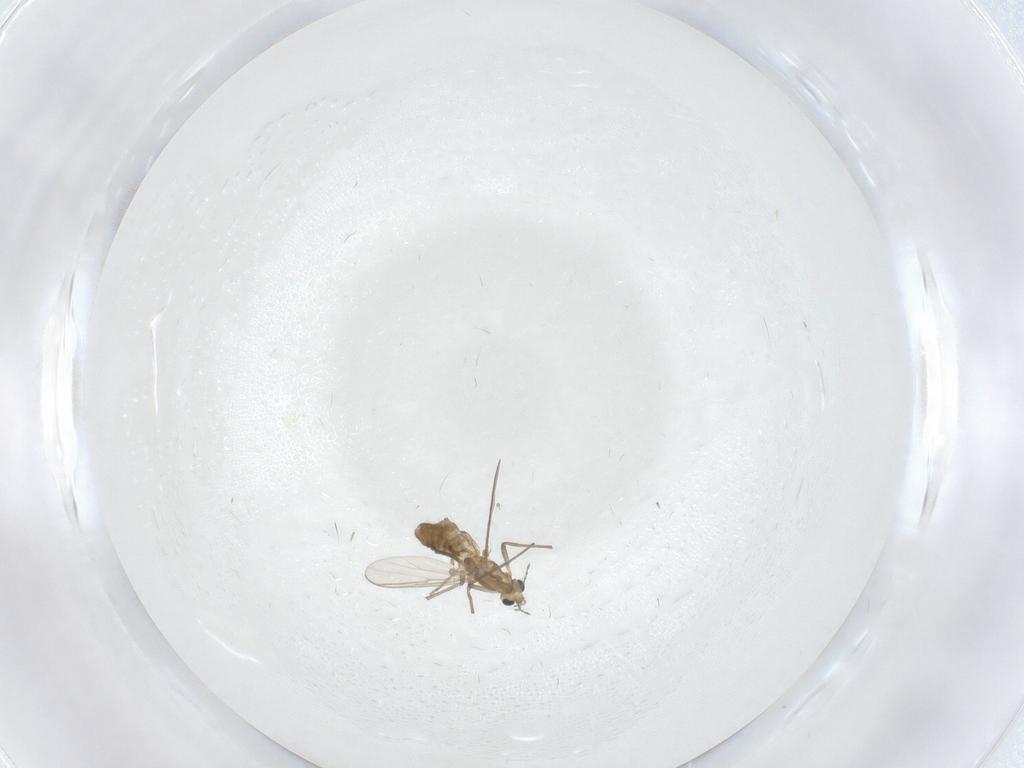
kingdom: Animalia
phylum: Arthropoda
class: Insecta
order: Diptera
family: Chironomidae
